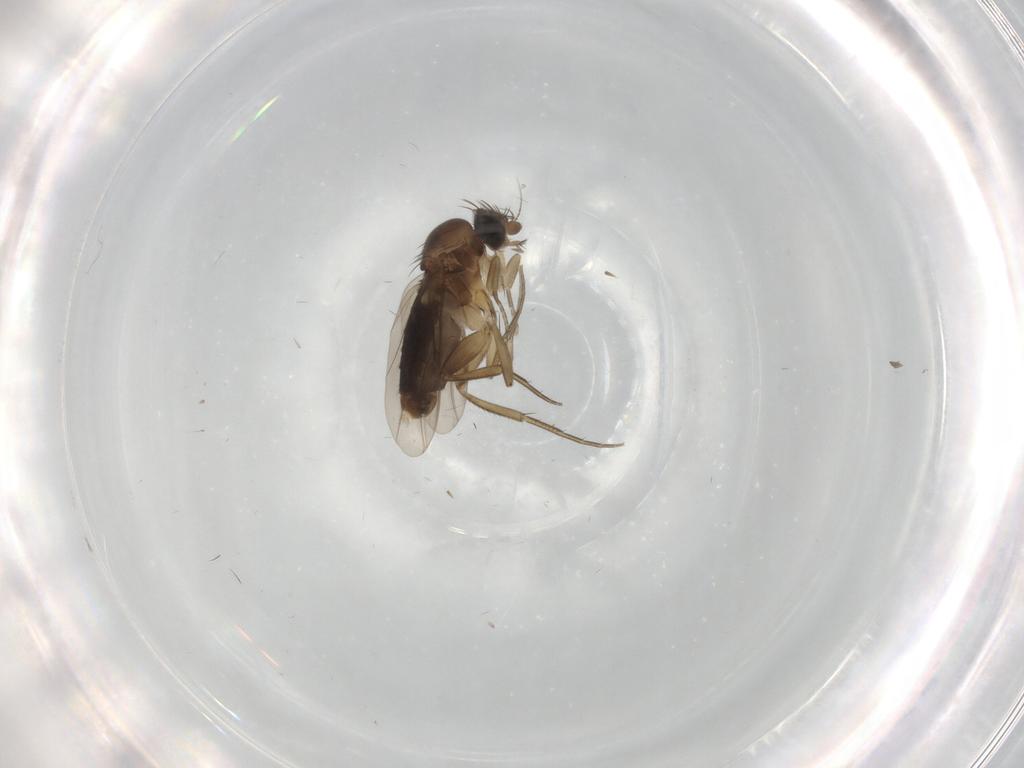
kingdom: Animalia
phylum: Arthropoda
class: Insecta
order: Diptera
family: Phoridae
